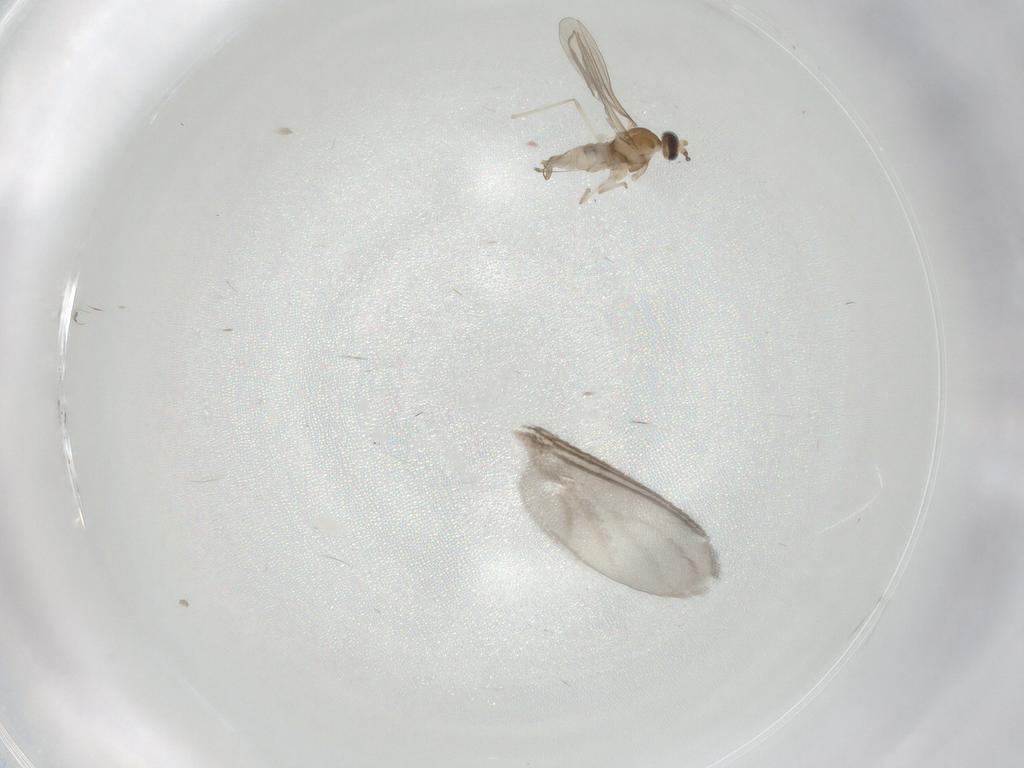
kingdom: Animalia
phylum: Arthropoda
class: Insecta
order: Diptera
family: Cecidomyiidae
